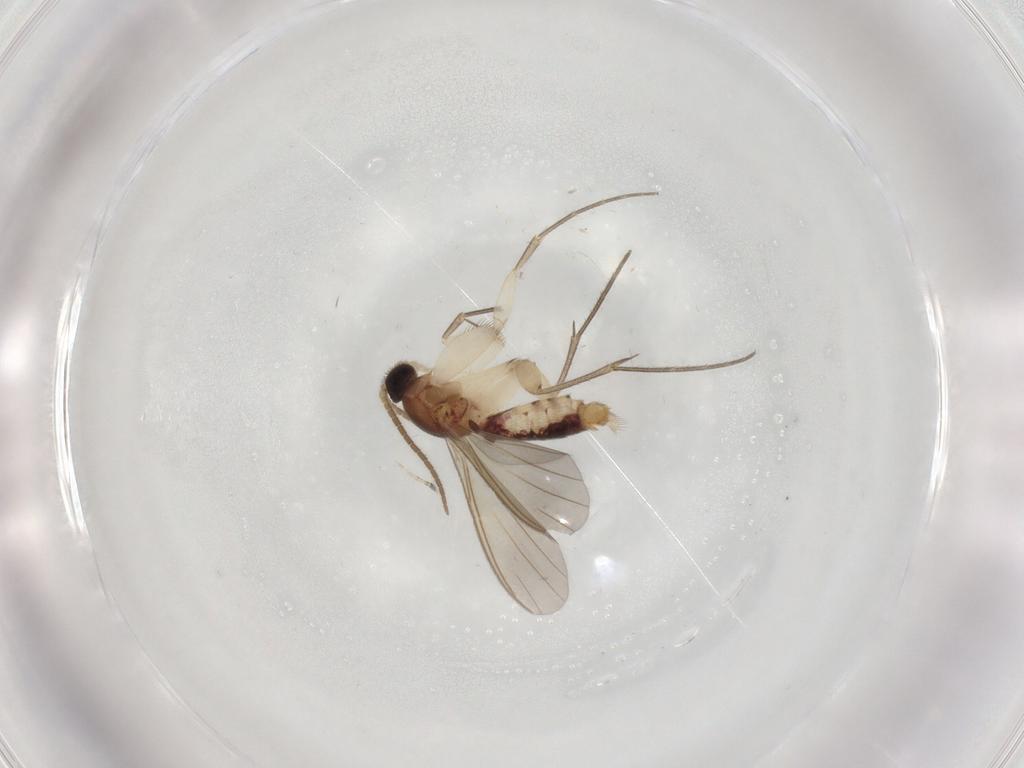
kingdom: Animalia
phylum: Arthropoda
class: Insecta
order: Diptera
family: Mycetophilidae
